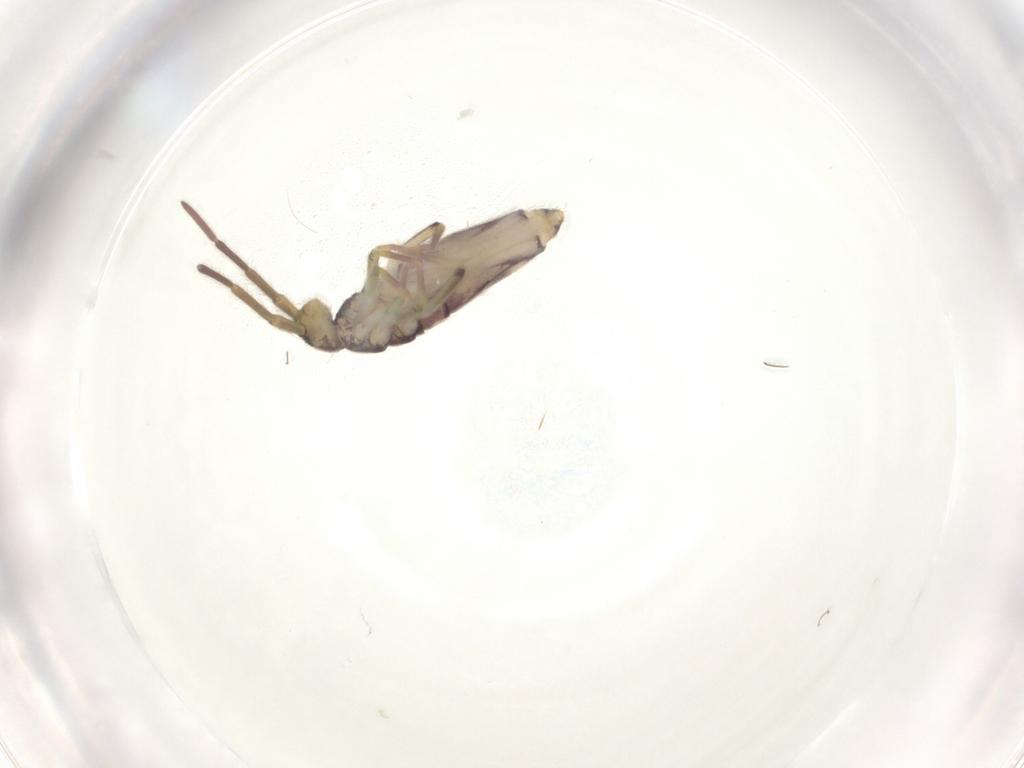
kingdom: Animalia
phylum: Arthropoda
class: Collembola
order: Entomobryomorpha
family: Entomobryidae
